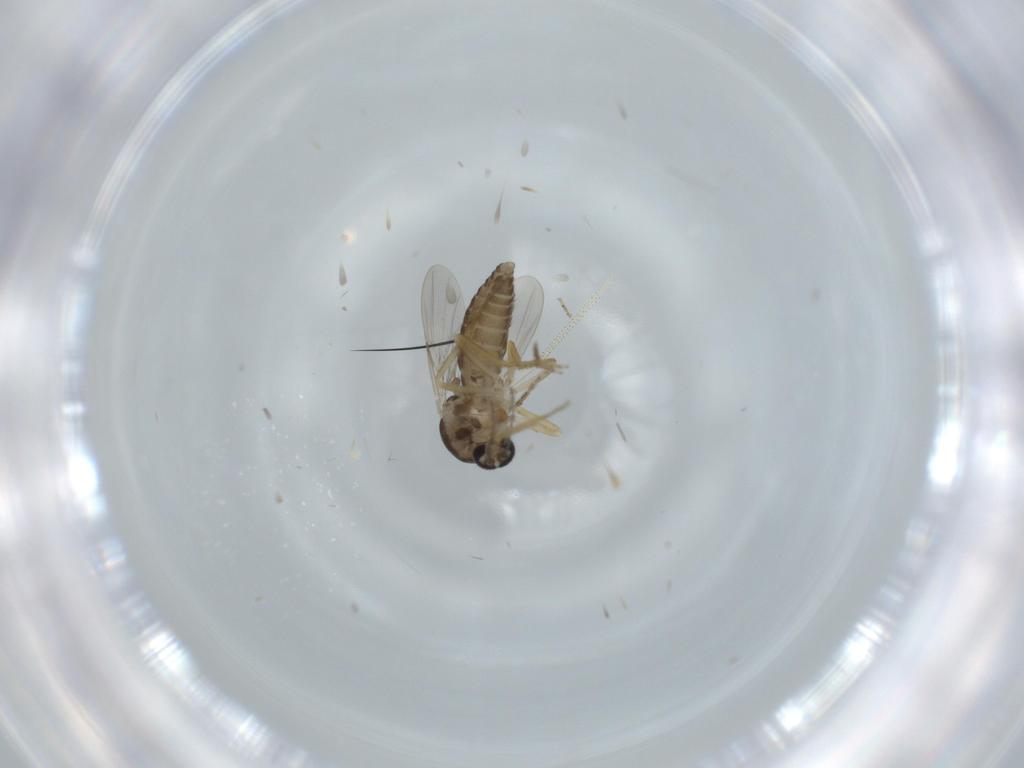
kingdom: Animalia
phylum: Arthropoda
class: Insecta
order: Diptera
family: Ceratopogonidae
